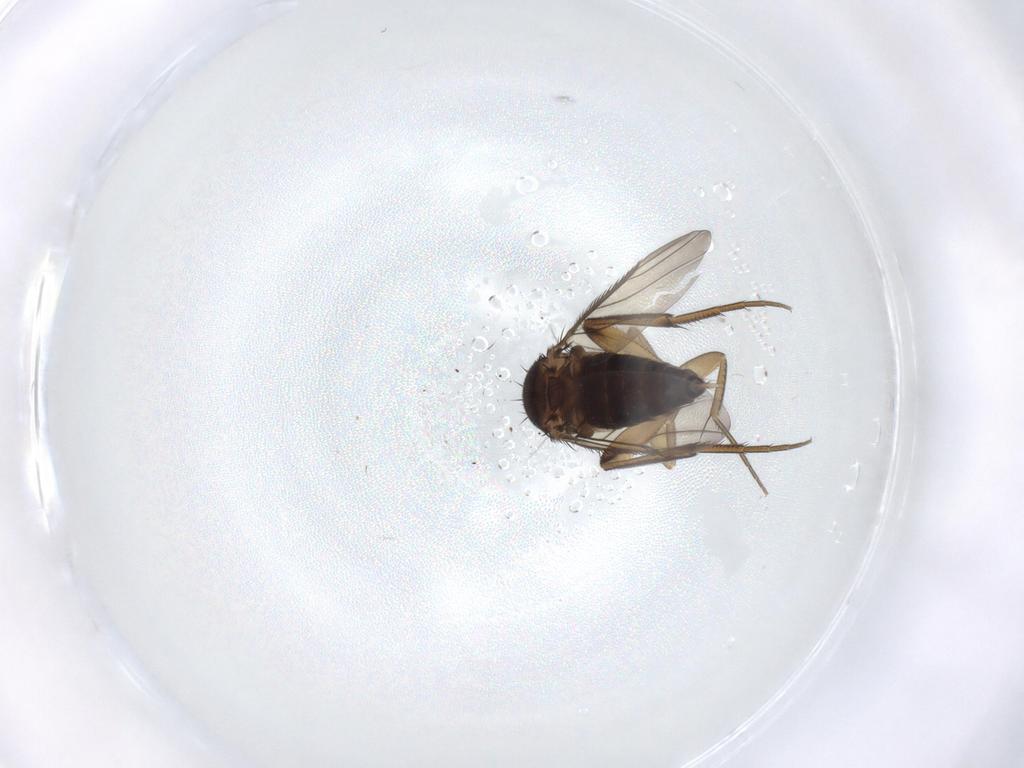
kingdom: Animalia
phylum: Arthropoda
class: Insecta
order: Diptera
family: Phoridae
